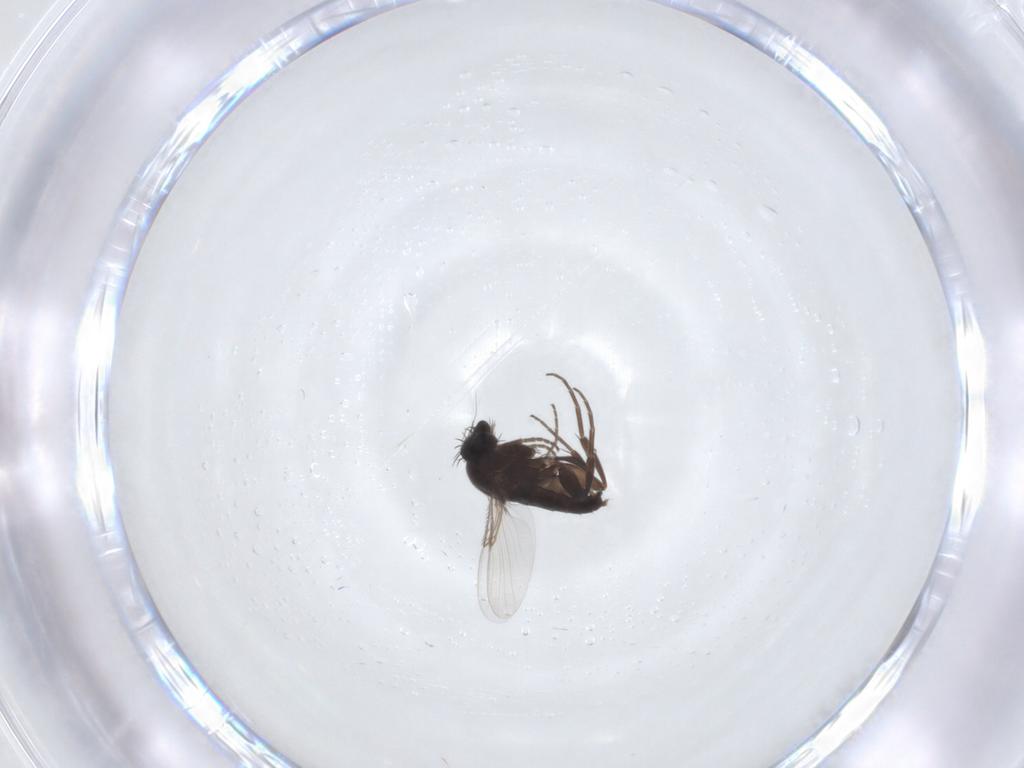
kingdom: Animalia
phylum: Arthropoda
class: Insecta
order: Diptera
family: Phoridae
